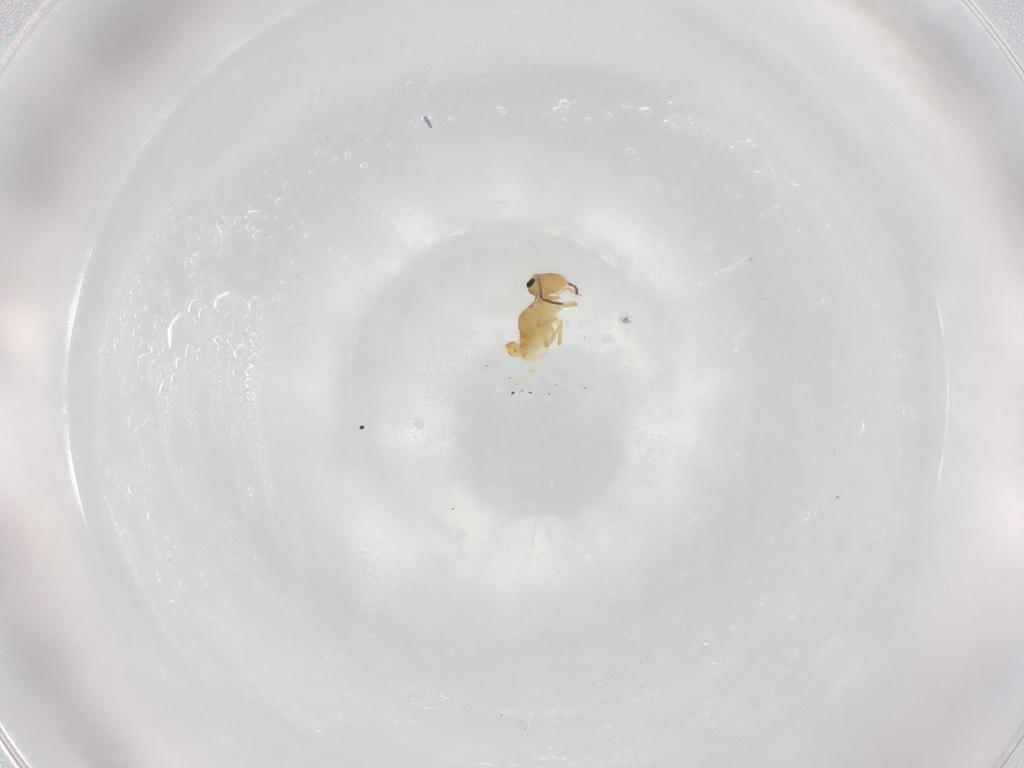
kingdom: Animalia
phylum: Arthropoda
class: Collembola
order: Symphypleona
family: Bourletiellidae
